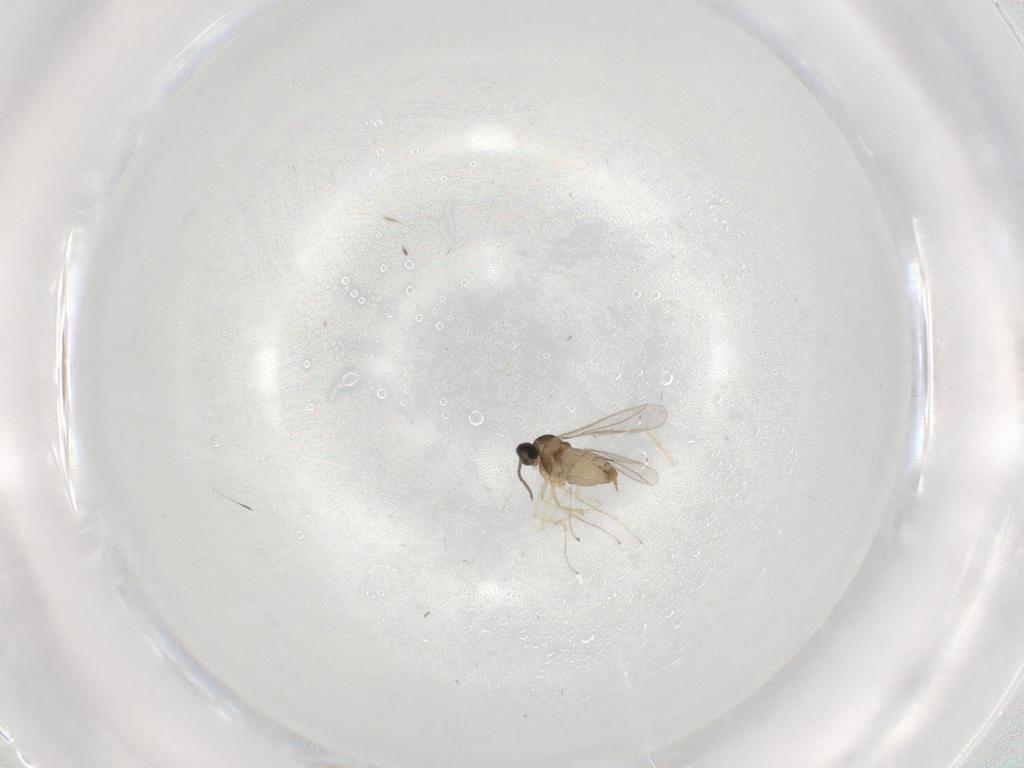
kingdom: Animalia
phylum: Arthropoda
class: Insecta
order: Diptera
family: Cecidomyiidae
